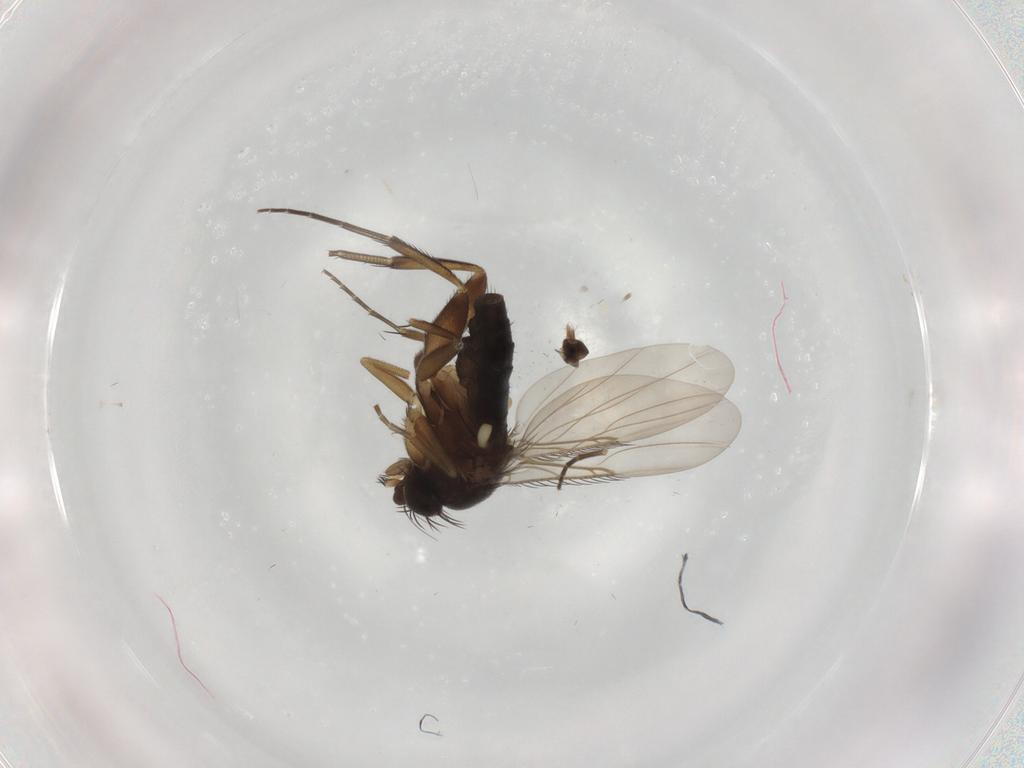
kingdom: Animalia
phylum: Arthropoda
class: Insecta
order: Diptera
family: Phoridae
